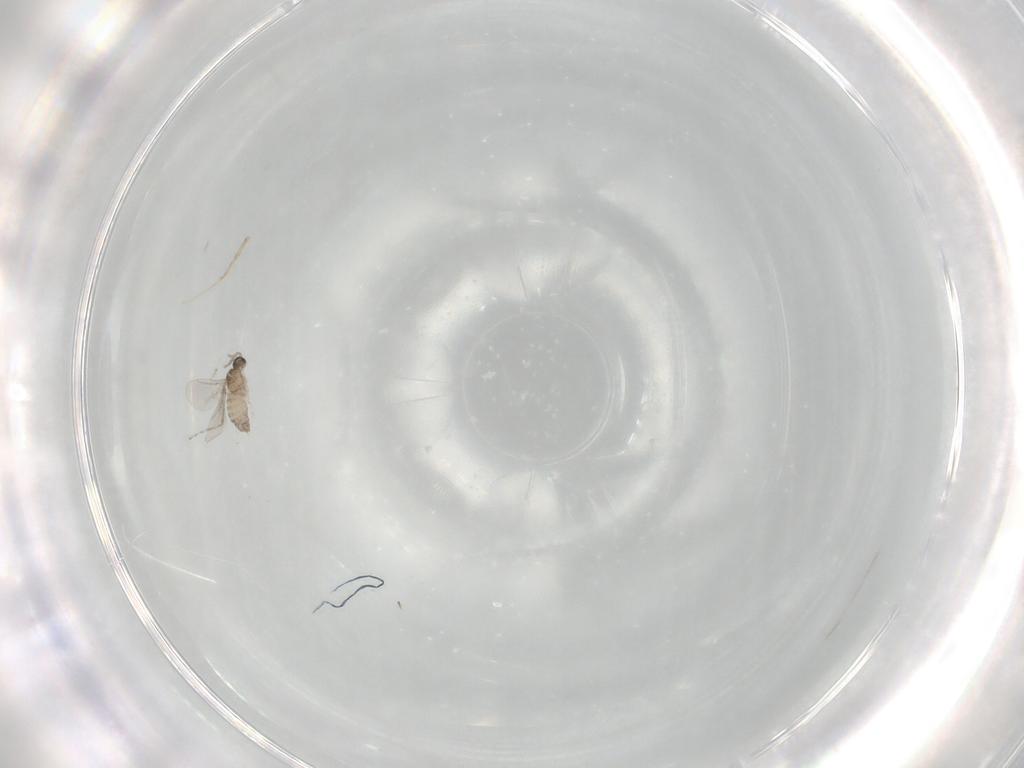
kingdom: Animalia
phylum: Arthropoda
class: Insecta
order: Diptera
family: Cecidomyiidae
